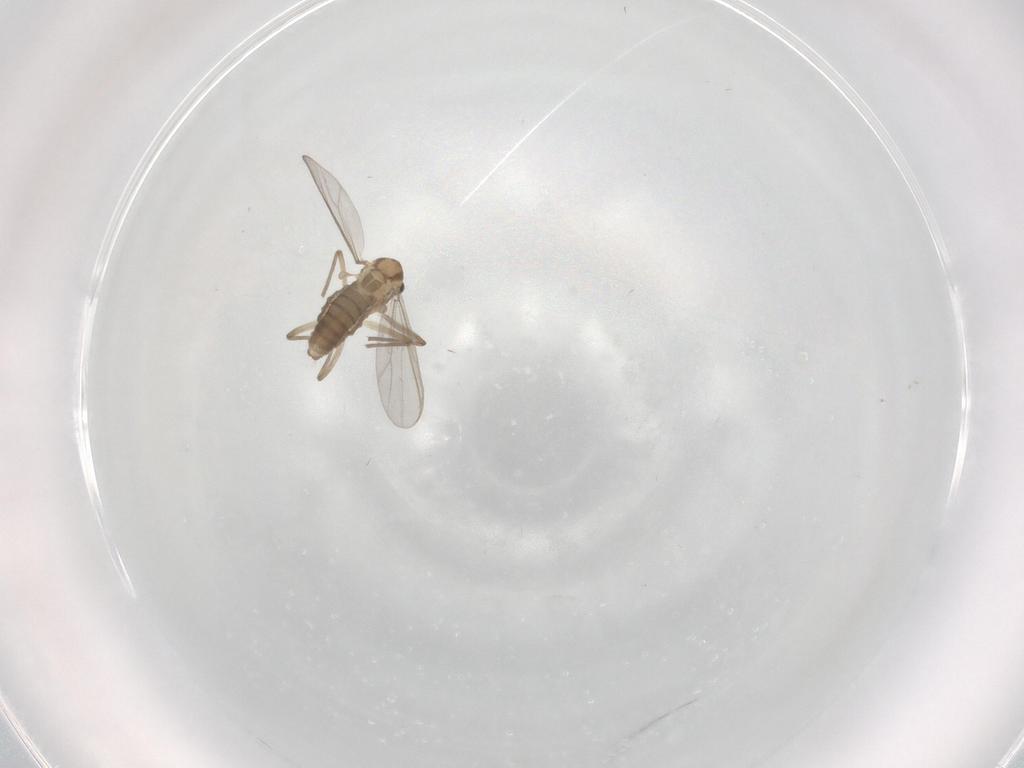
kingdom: Animalia
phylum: Arthropoda
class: Insecta
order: Diptera
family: Chironomidae
